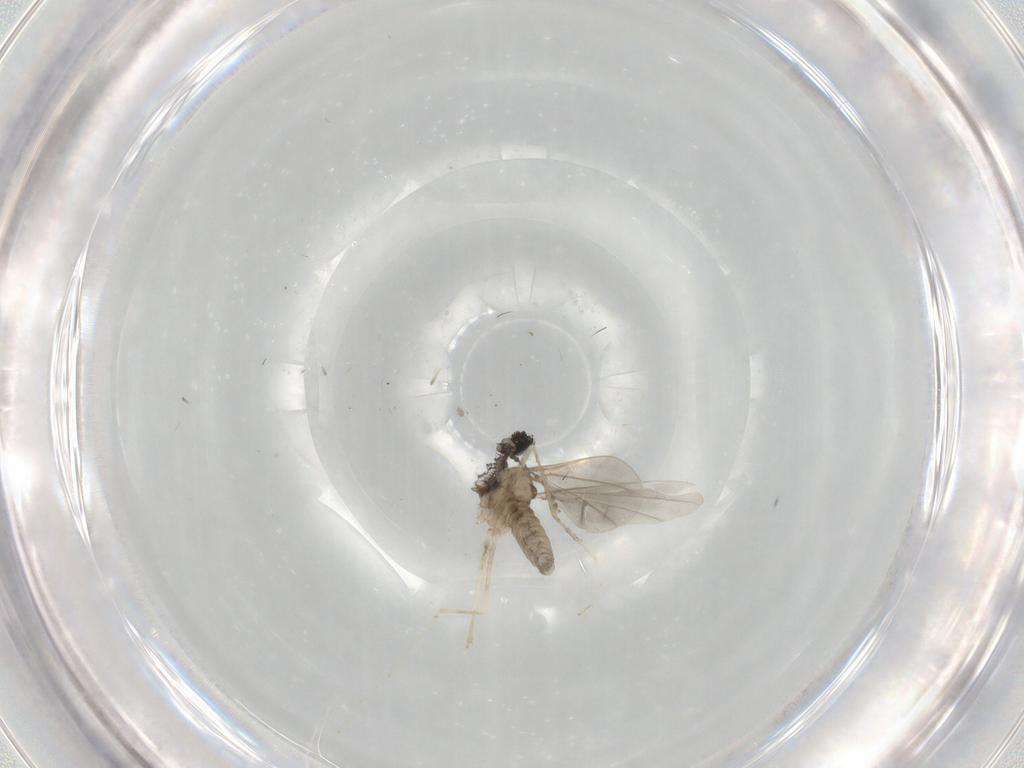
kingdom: Animalia
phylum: Arthropoda
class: Insecta
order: Diptera
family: Cecidomyiidae
